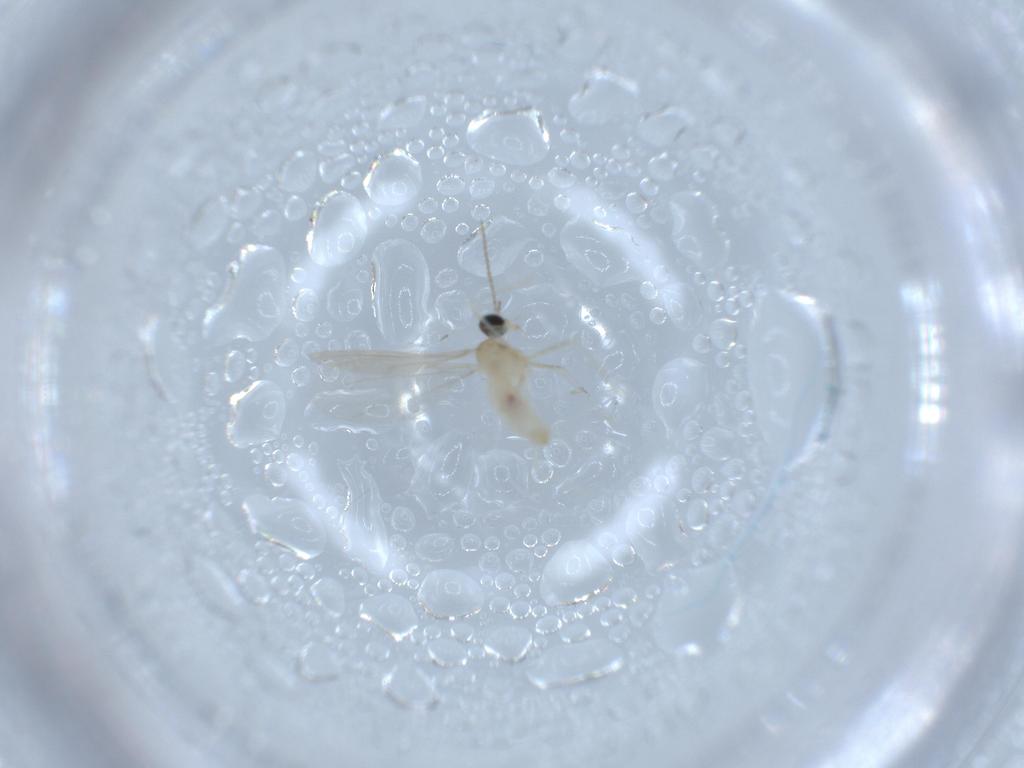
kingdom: Animalia
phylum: Arthropoda
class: Insecta
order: Diptera
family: Cecidomyiidae
